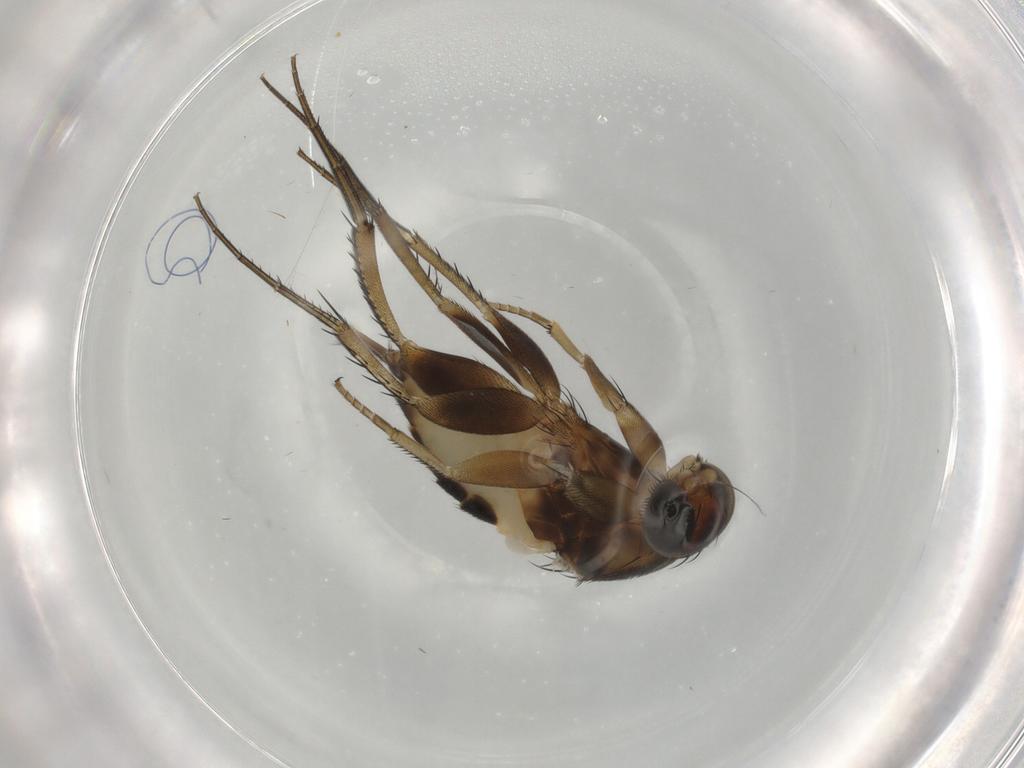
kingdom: Animalia
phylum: Arthropoda
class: Insecta
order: Diptera
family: Phoridae
